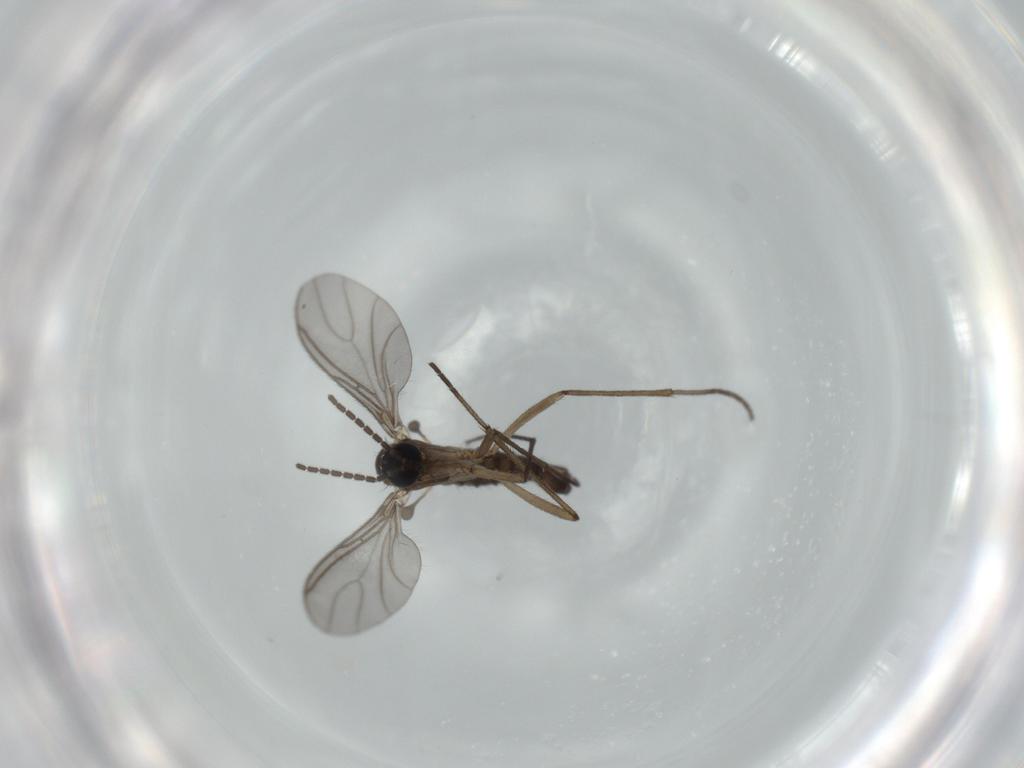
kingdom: Animalia
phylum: Arthropoda
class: Insecta
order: Diptera
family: Sciaridae
